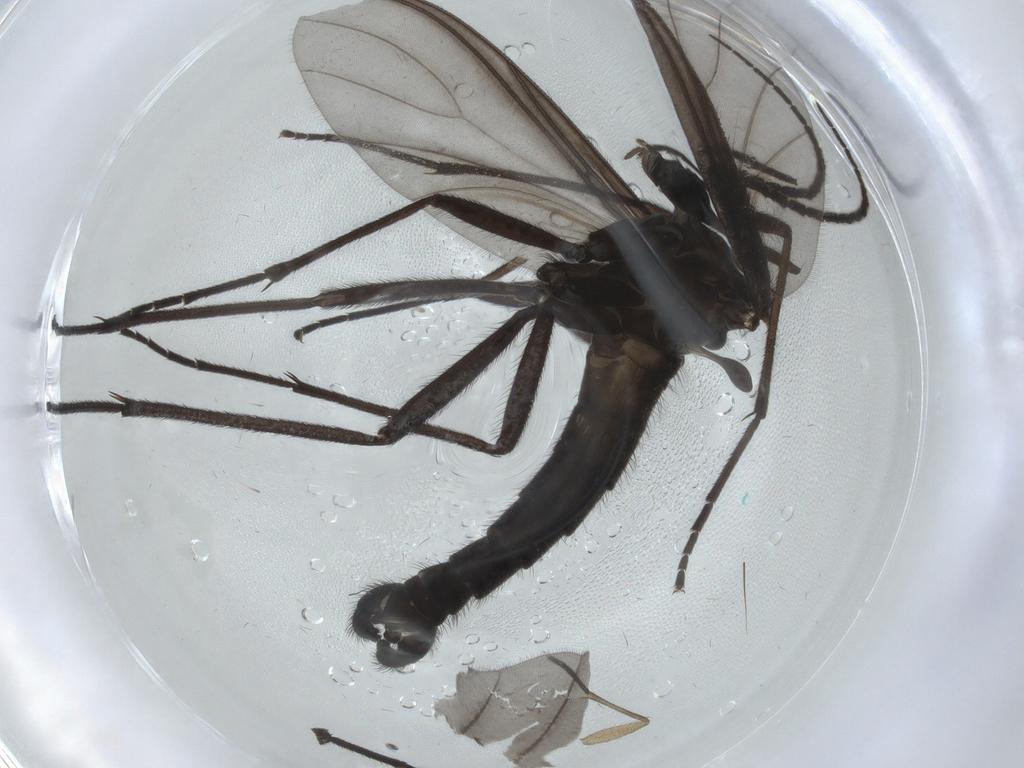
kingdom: Animalia
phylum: Arthropoda
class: Insecta
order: Diptera
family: Sciaridae
